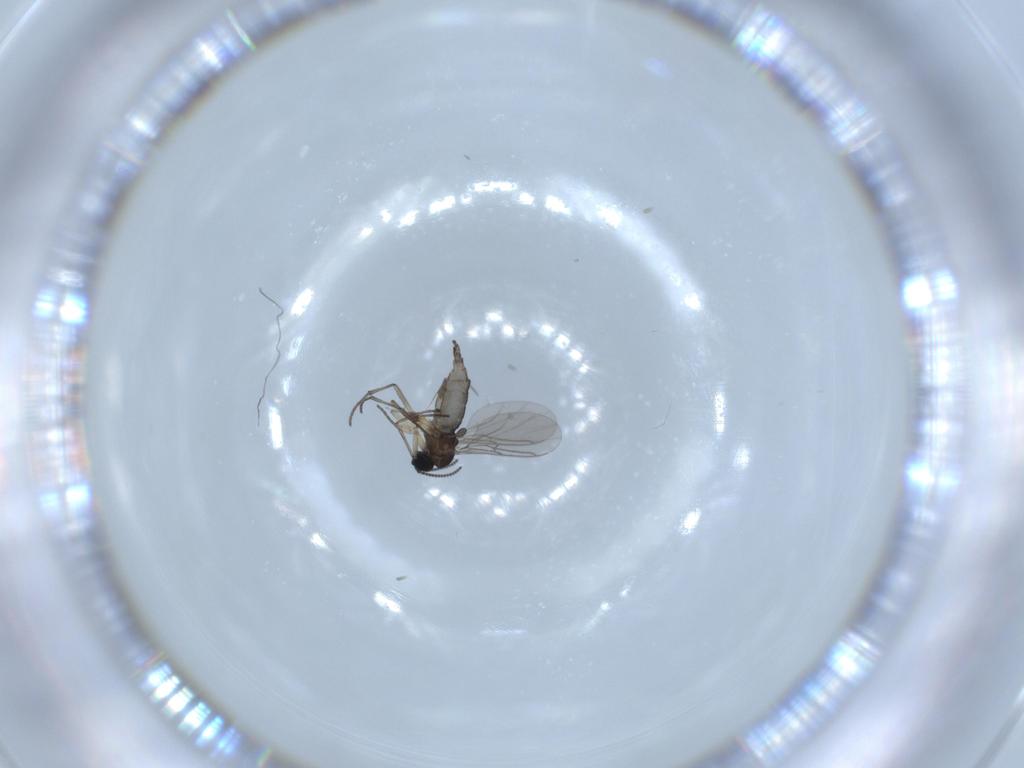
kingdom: Animalia
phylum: Arthropoda
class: Insecta
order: Diptera
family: Sciaridae
